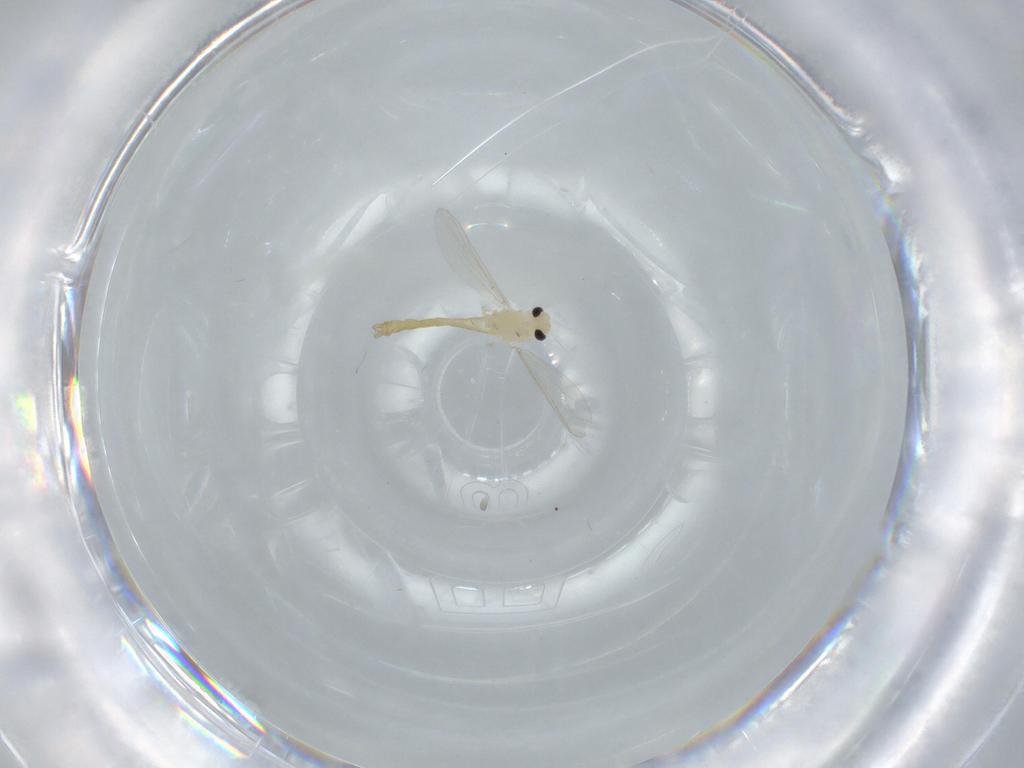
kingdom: Animalia
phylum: Arthropoda
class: Insecta
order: Diptera
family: Chironomidae
